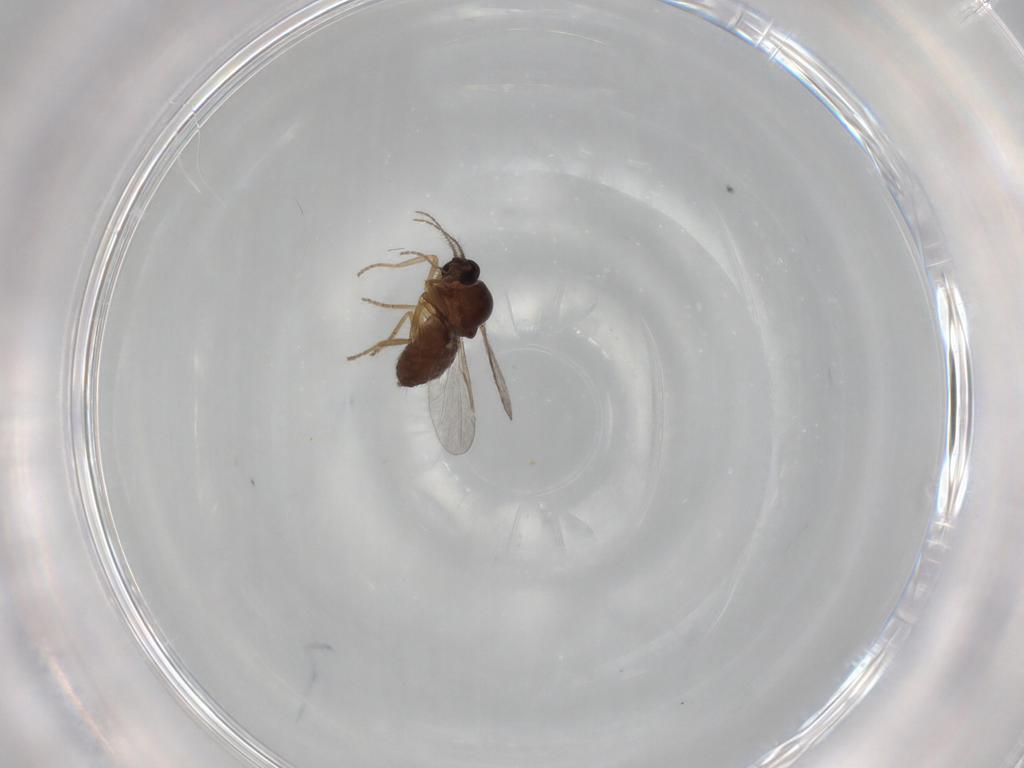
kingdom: Animalia
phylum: Arthropoda
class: Insecta
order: Diptera
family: Ceratopogonidae
